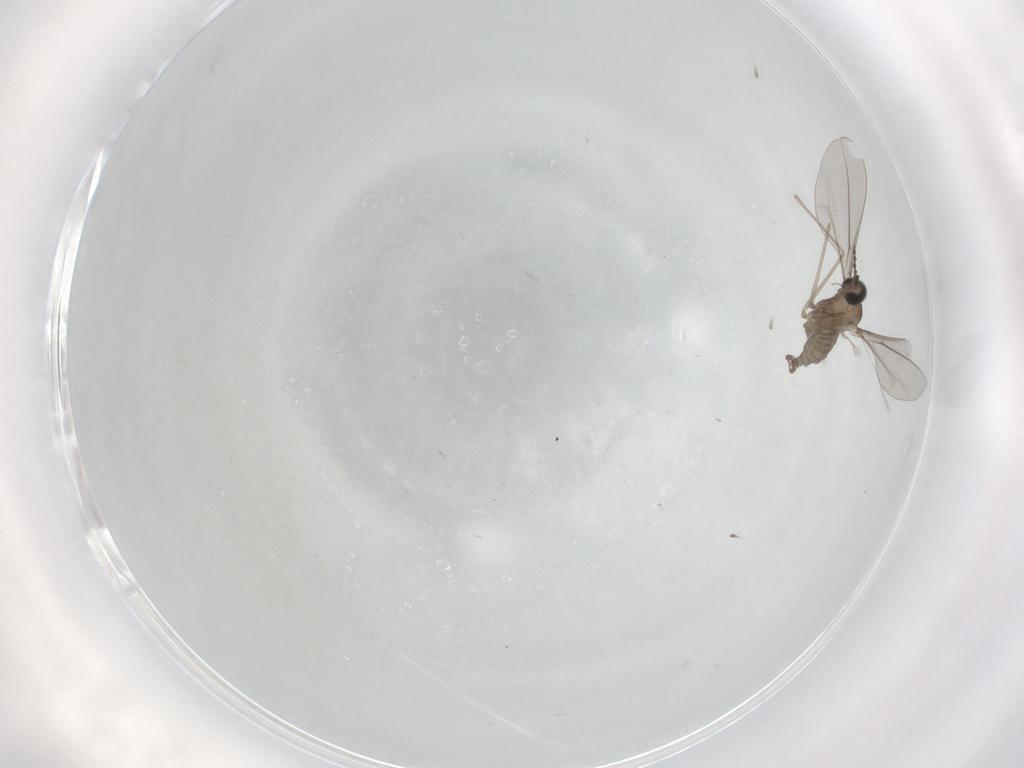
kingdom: Animalia
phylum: Arthropoda
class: Insecta
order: Diptera
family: Cecidomyiidae
